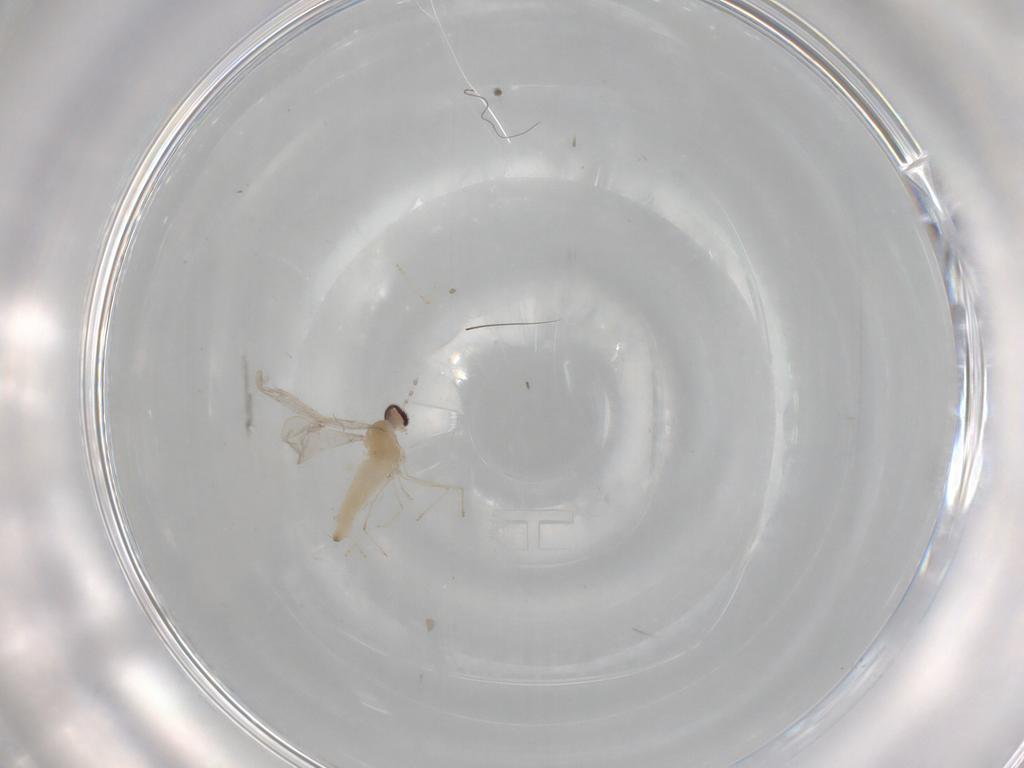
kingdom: Animalia
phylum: Arthropoda
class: Insecta
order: Diptera
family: Cecidomyiidae
